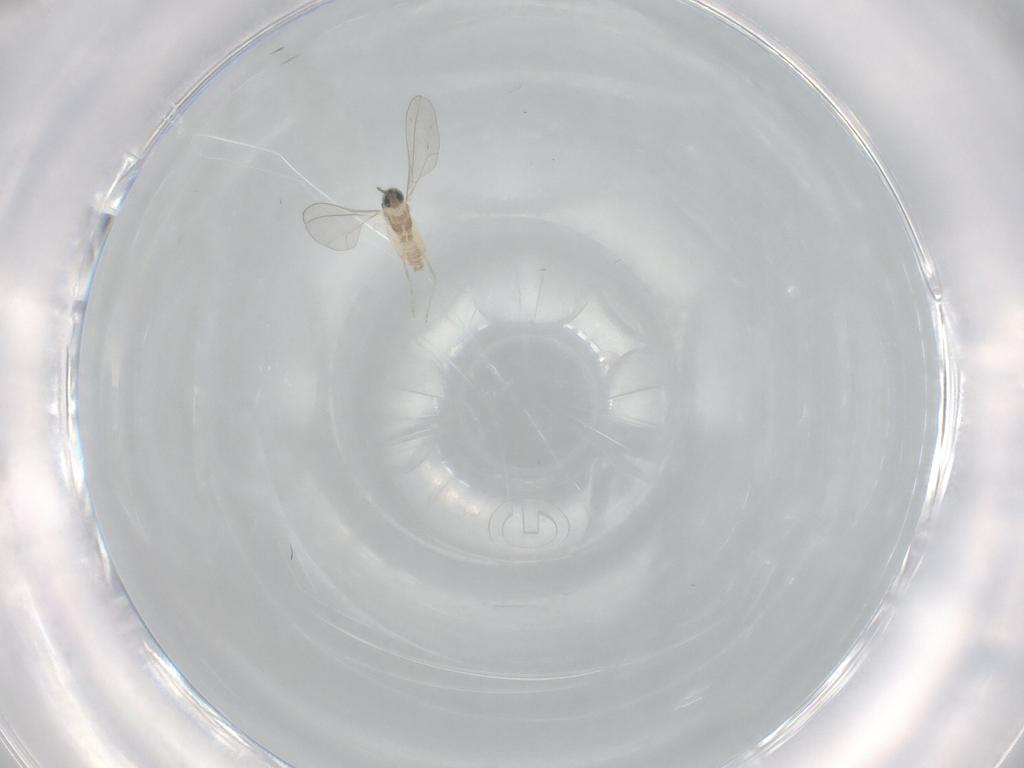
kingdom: Animalia
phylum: Arthropoda
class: Insecta
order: Diptera
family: Cecidomyiidae
